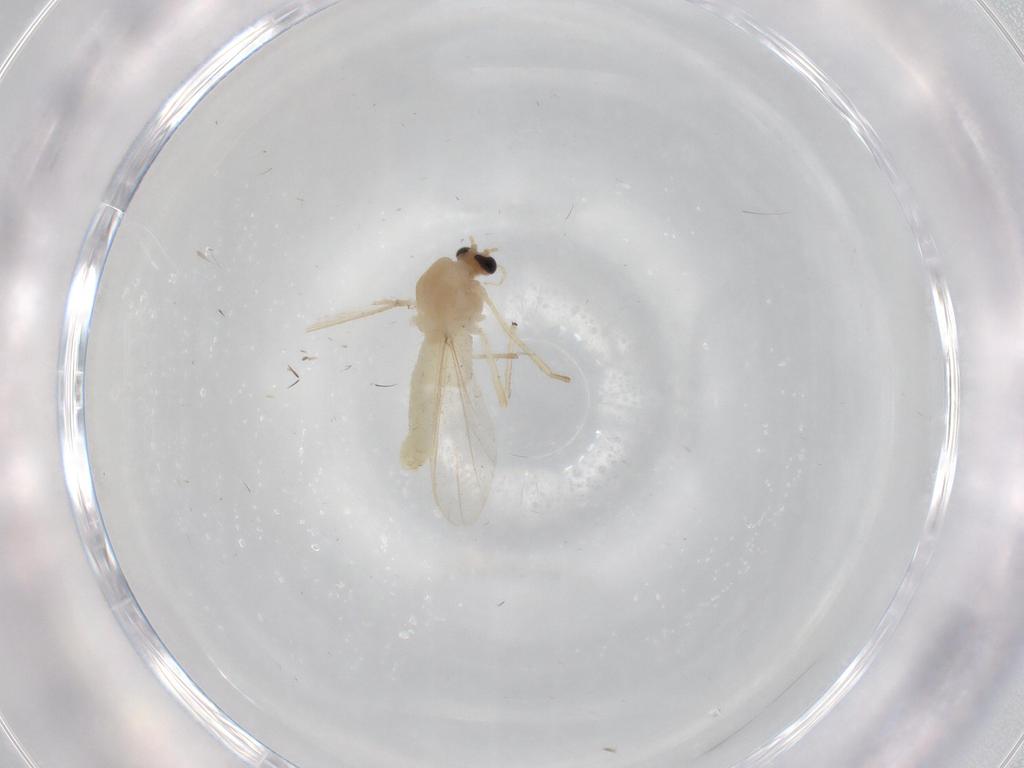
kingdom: Animalia
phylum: Arthropoda
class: Insecta
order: Diptera
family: Chironomidae
